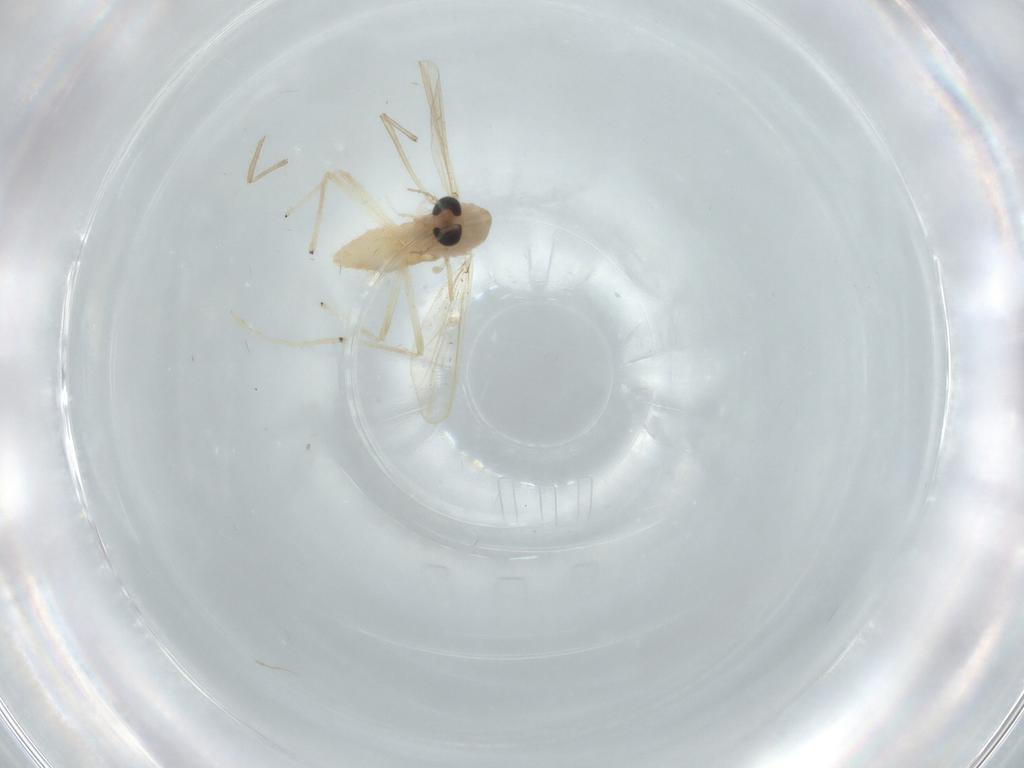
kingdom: Animalia
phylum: Arthropoda
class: Insecta
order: Diptera
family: Chironomidae
